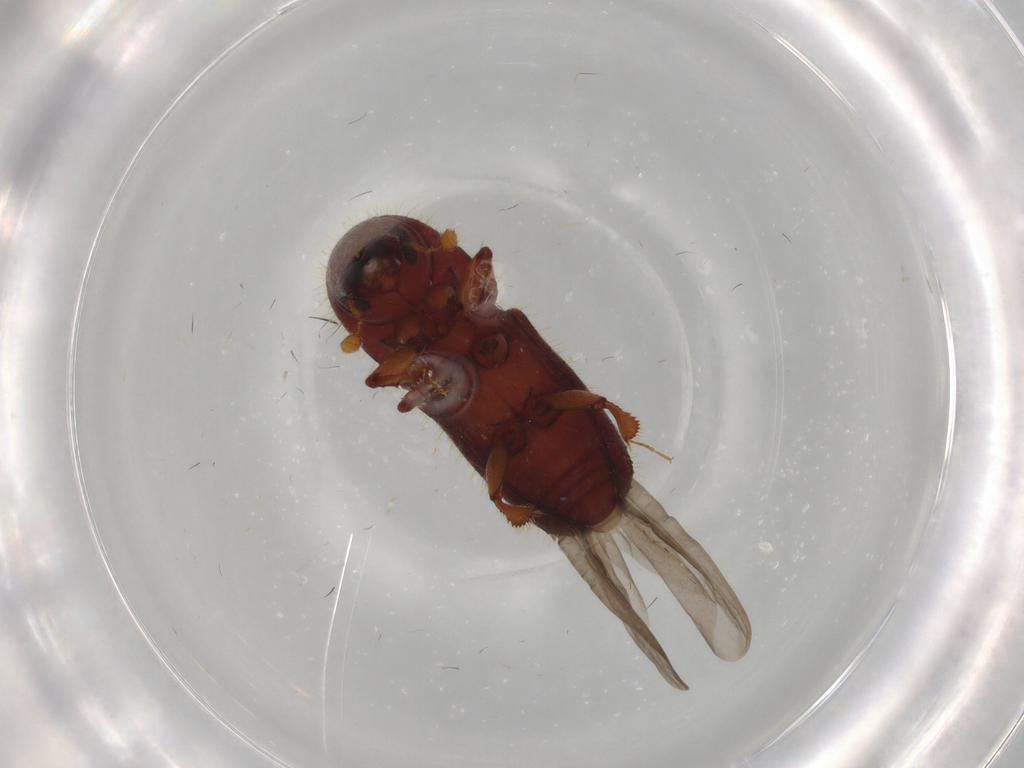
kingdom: Animalia
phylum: Arthropoda
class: Insecta
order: Coleoptera
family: Curculionidae
